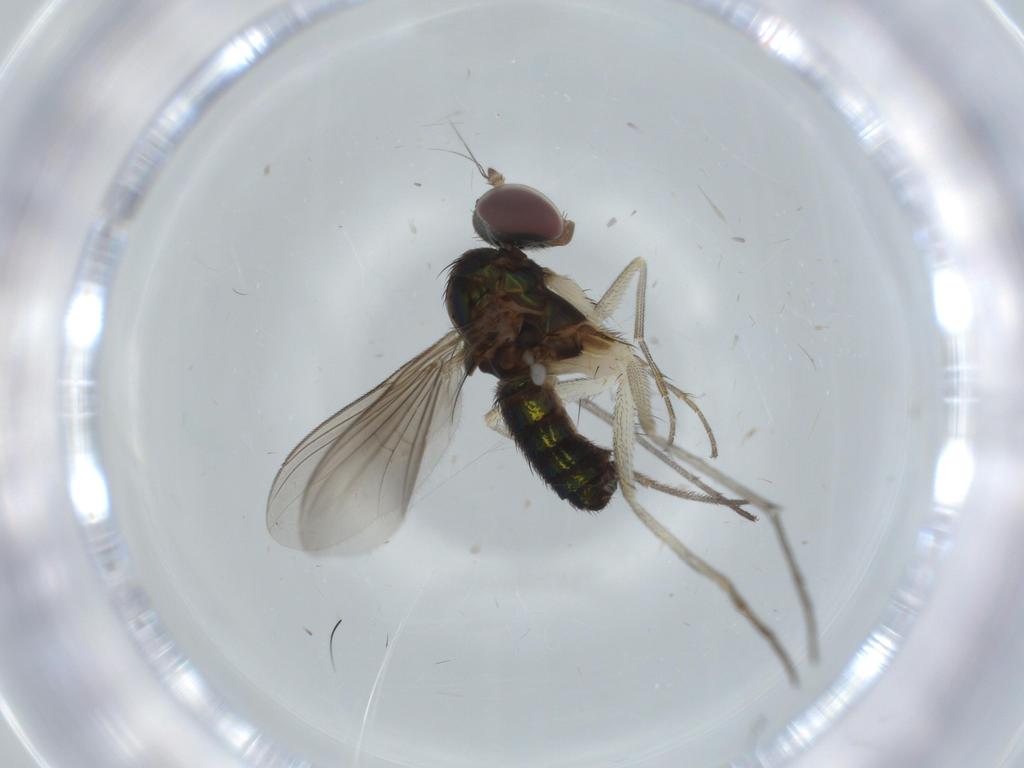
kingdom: Animalia
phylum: Arthropoda
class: Insecta
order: Diptera
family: Dolichopodidae
